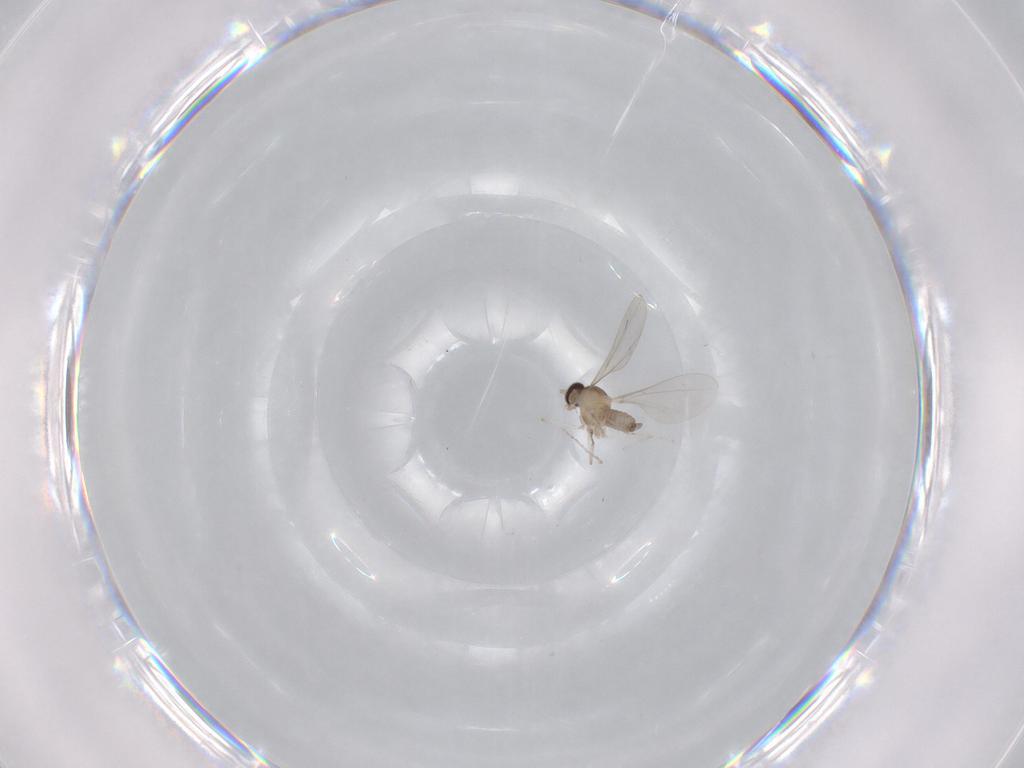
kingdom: Animalia
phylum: Arthropoda
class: Insecta
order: Diptera
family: Cecidomyiidae
